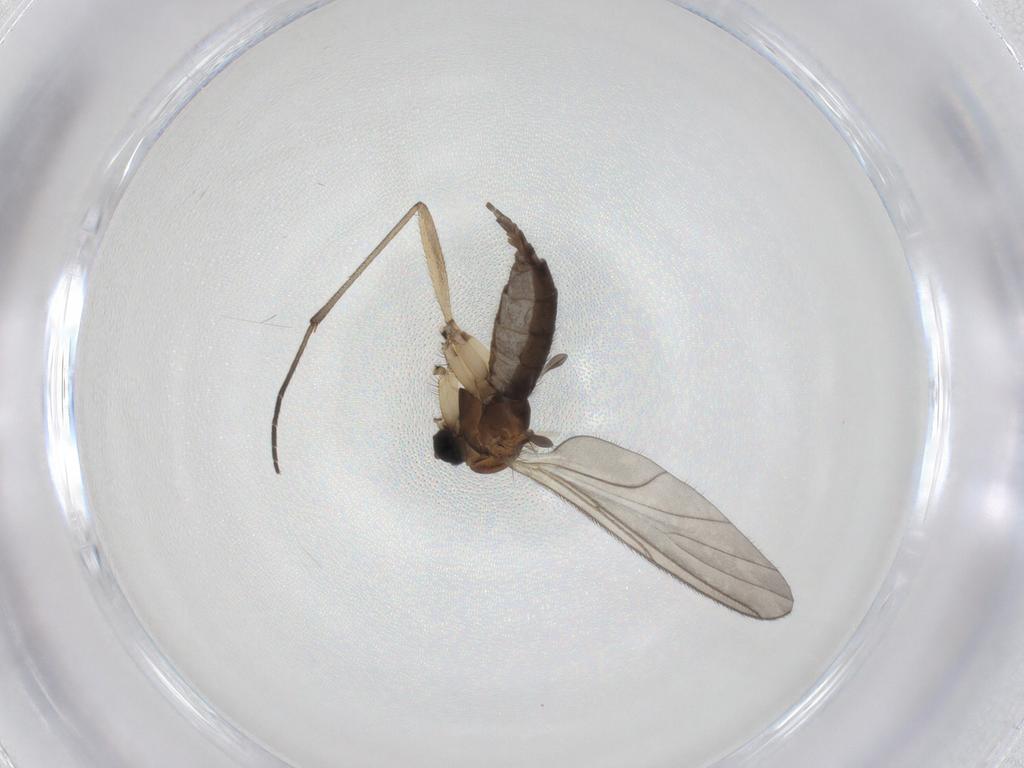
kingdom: Animalia
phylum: Arthropoda
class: Insecta
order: Diptera
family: Sciaridae
